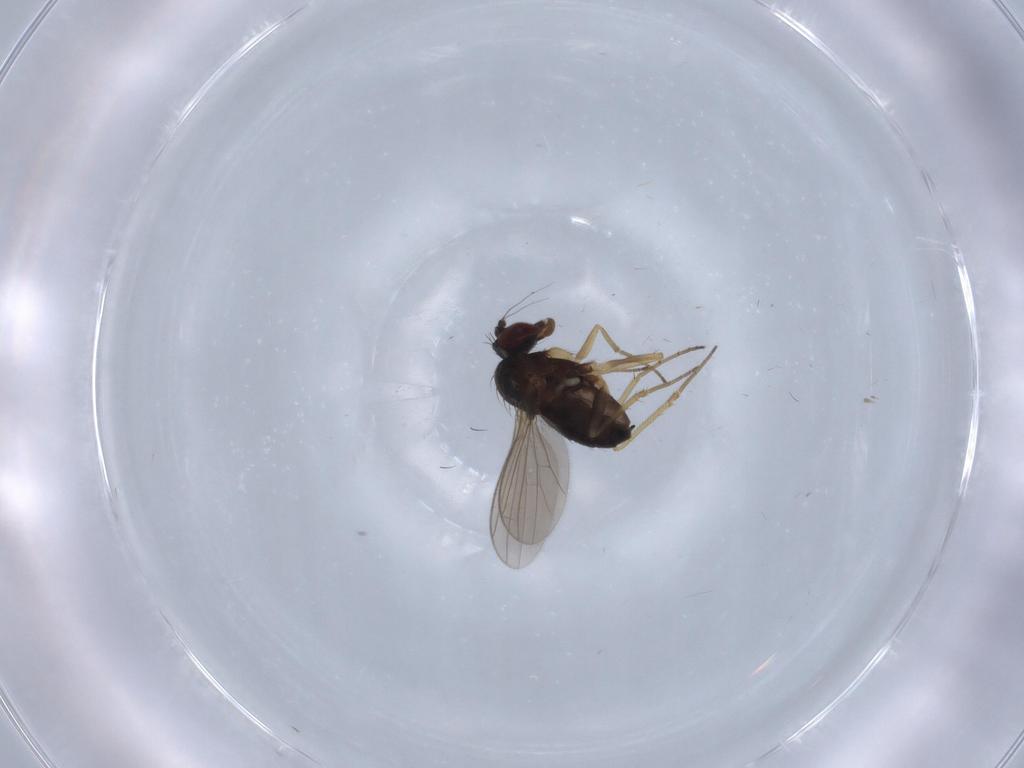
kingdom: Animalia
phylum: Arthropoda
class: Insecta
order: Diptera
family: Dolichopodidae
